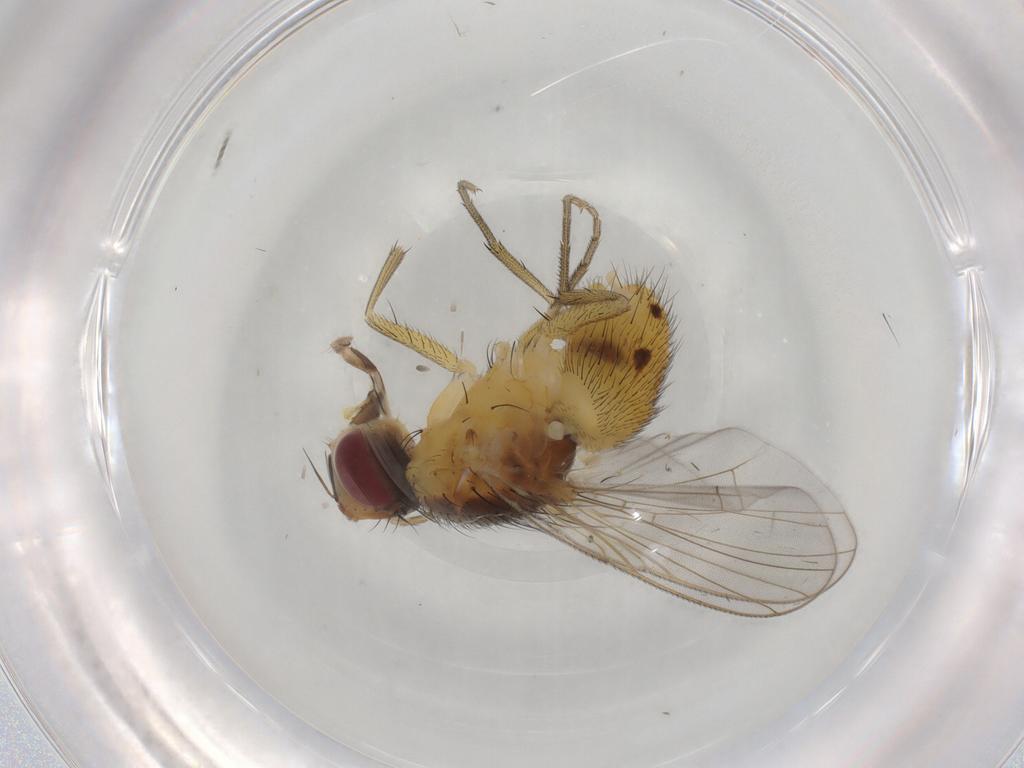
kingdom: Animalia
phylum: Arthropoda
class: Insecta
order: Diptera
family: Muscidae
